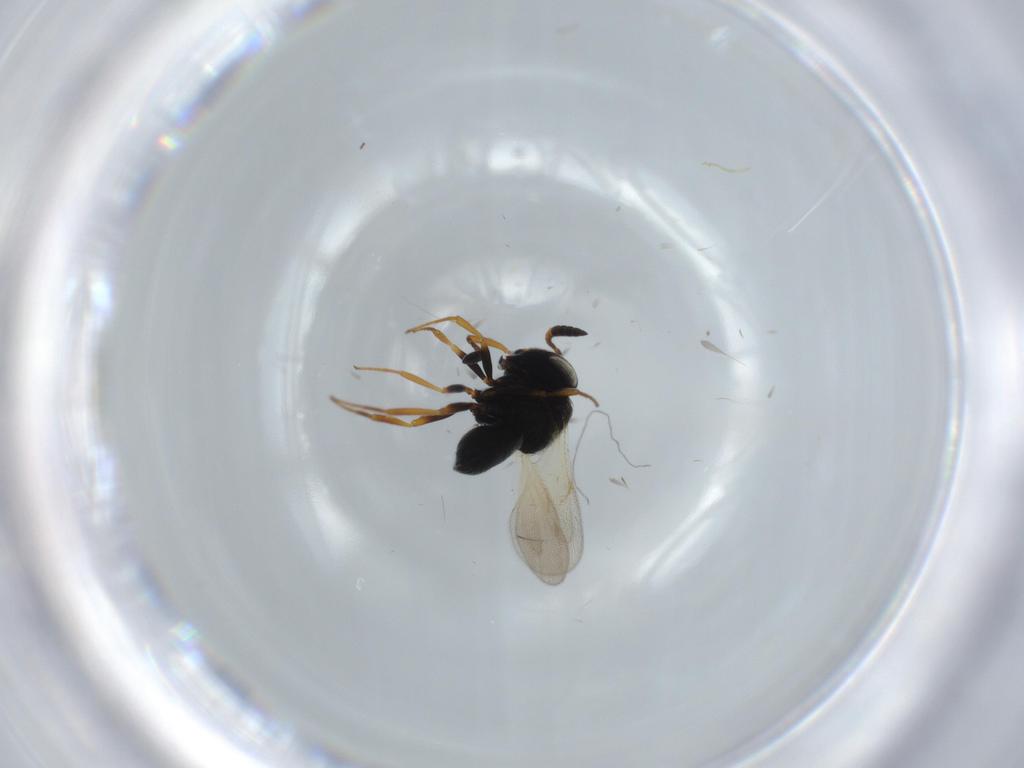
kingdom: Animalia
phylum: Arthropoda
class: Insecta
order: Hymenoptera
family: Scelionidae
